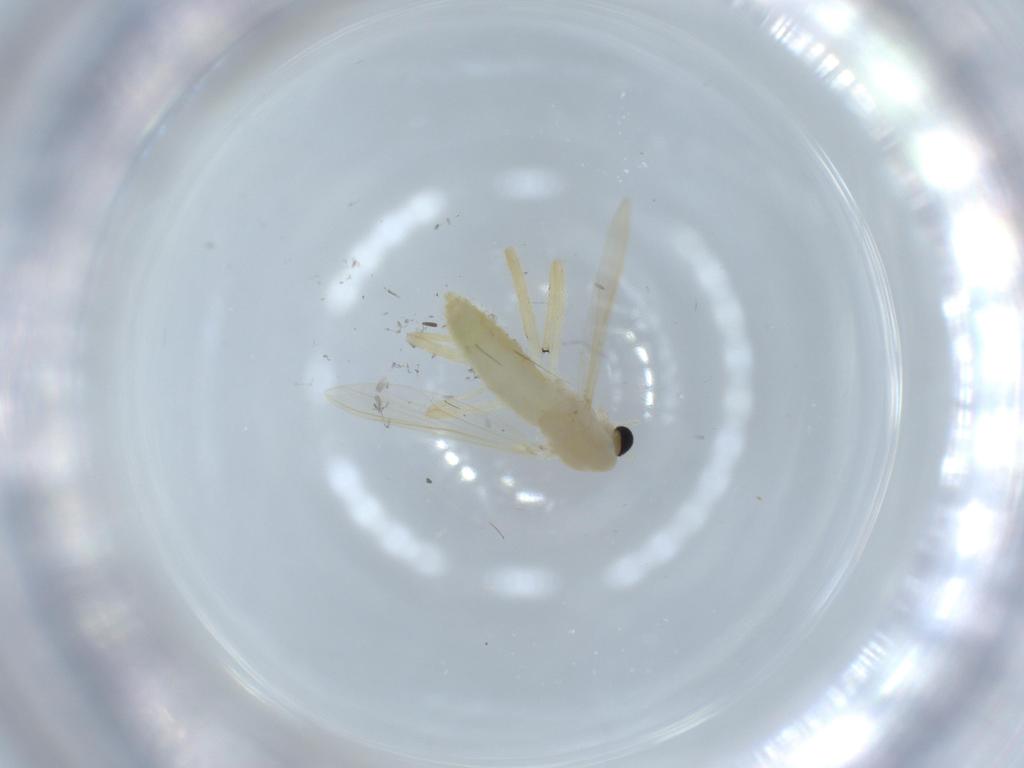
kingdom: Animalia
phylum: Arthropoda
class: Insecta
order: Diptera
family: Chironomidae
